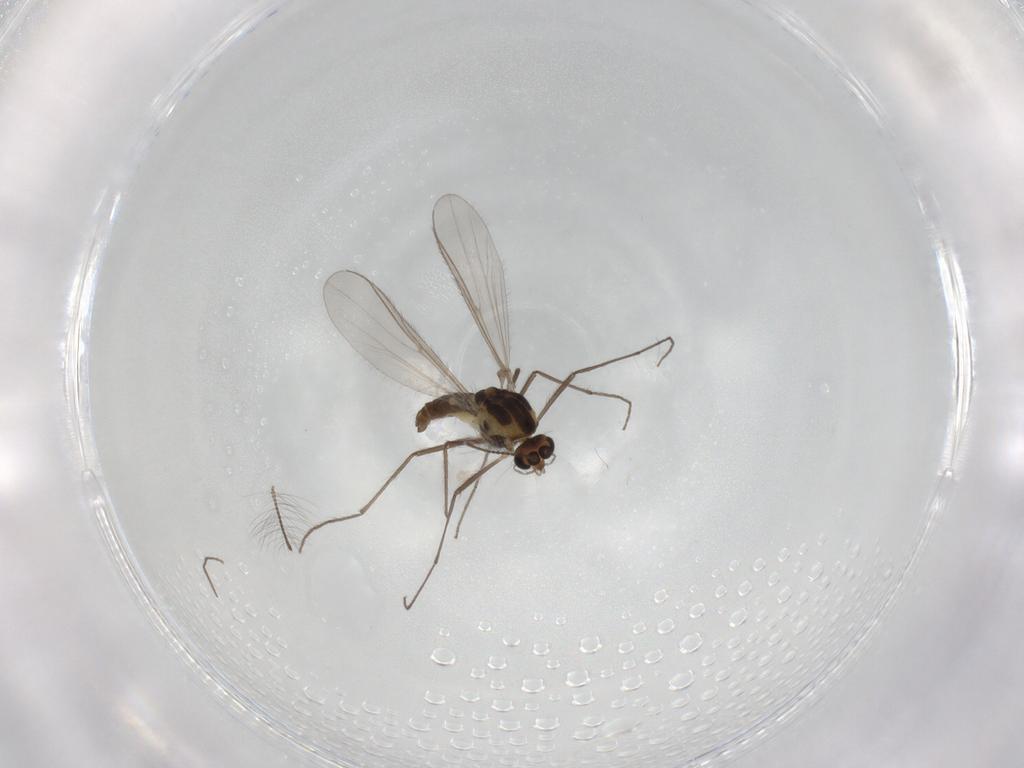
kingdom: Animalia
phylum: Arthropoda
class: Insecta
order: Diptera
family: Chironomidae
